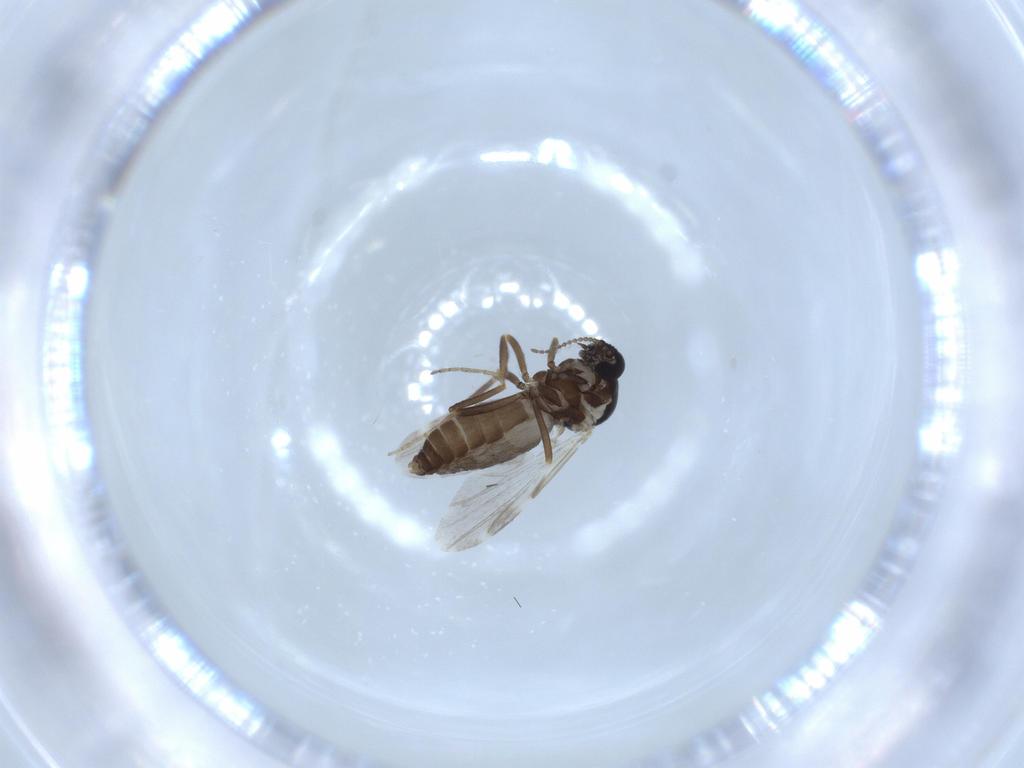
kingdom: Animalia
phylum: Arthropoda
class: Insecta
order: Diptera
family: Ceratopogonidae
